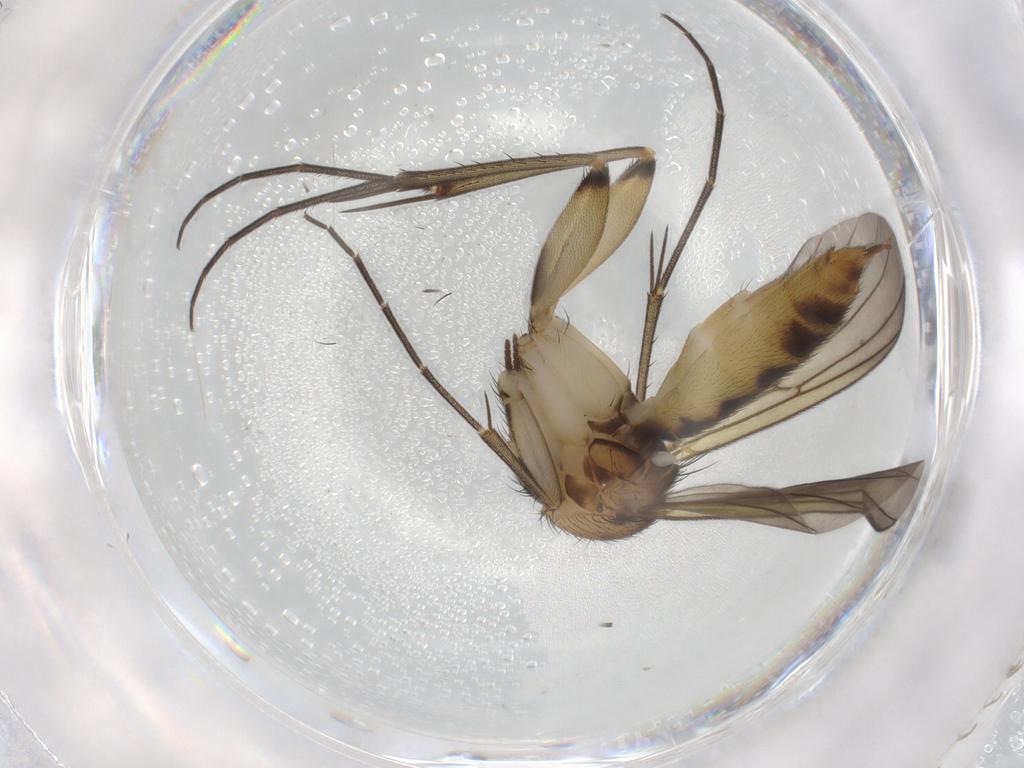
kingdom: Animalia
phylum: Arthropoda
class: Insecta
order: Diptera
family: Mycetophilidae
